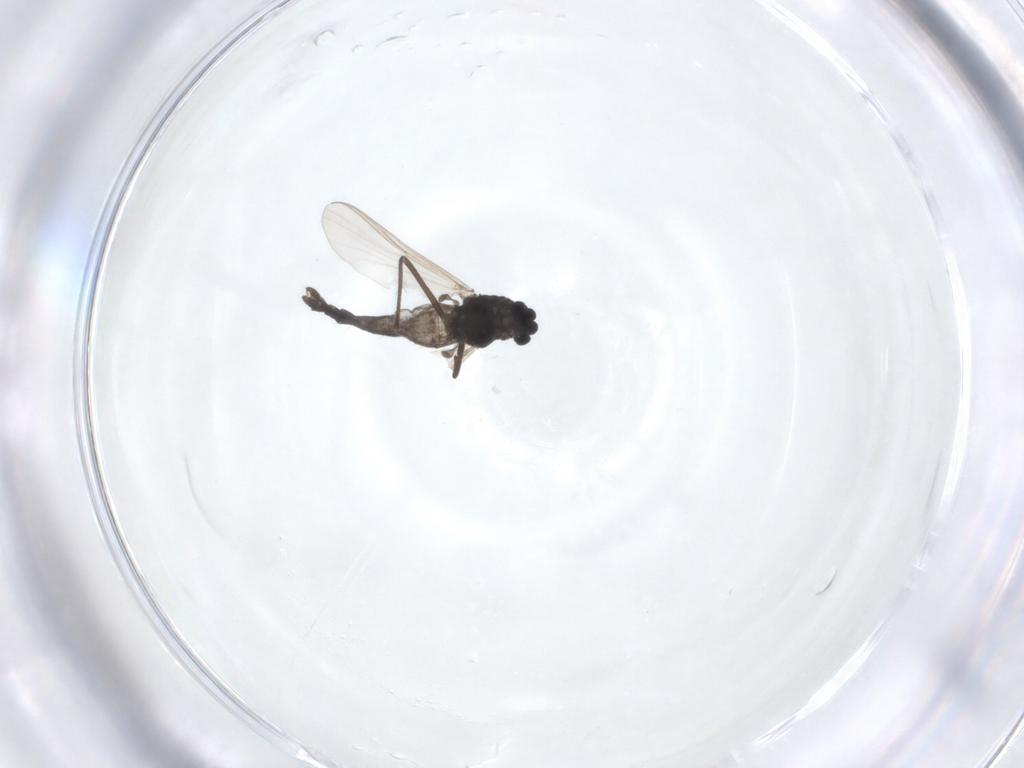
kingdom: Animalia
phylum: Arthropoda
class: Insecta
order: Diptera
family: Chironomidae
